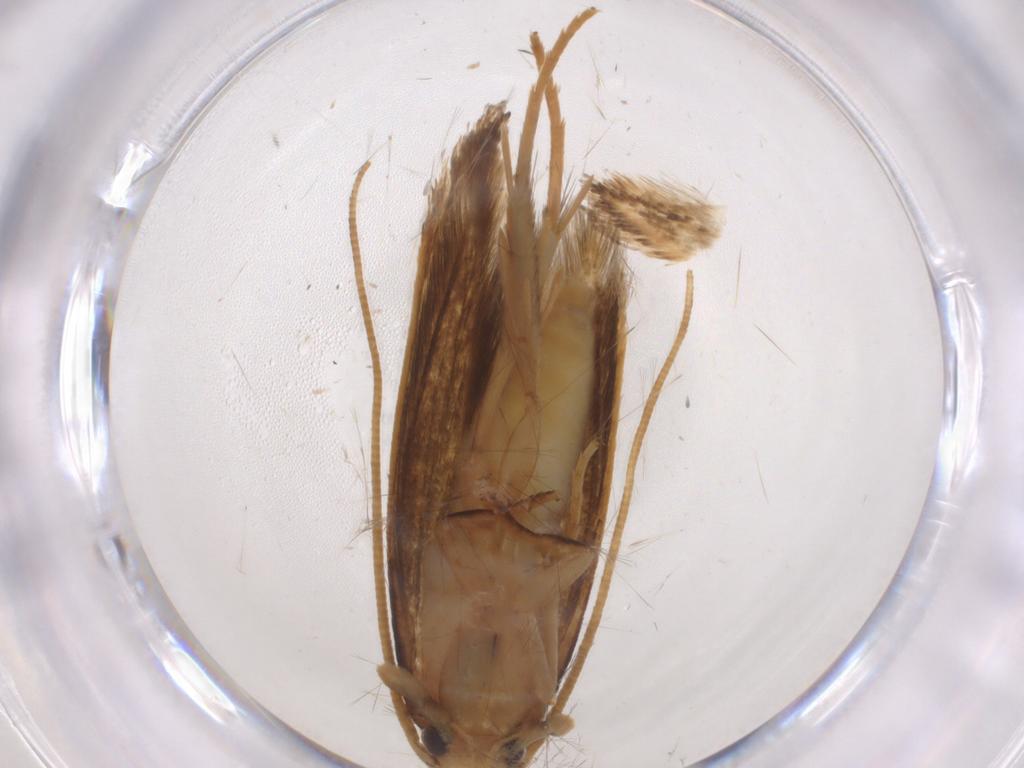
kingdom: Animalia
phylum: Arthropoda
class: Insecta
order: Lepidoptera
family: Tineidae
